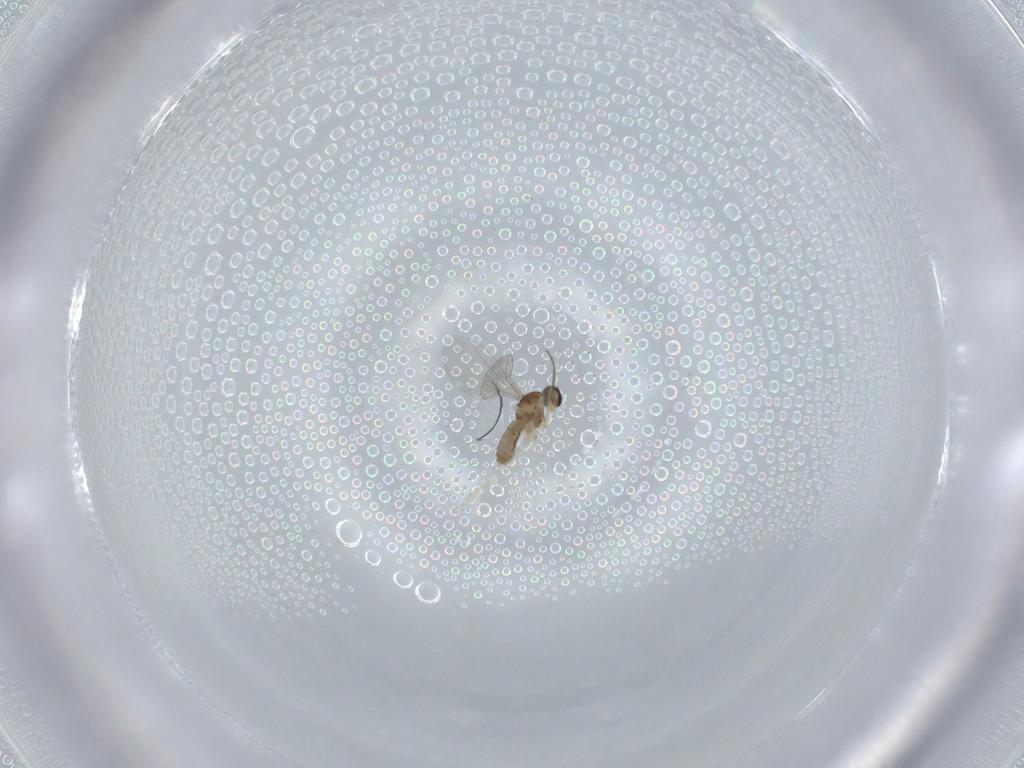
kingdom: Animalia
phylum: Arthropoda
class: Insecta
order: Diptera
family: Cecidomyiidae
